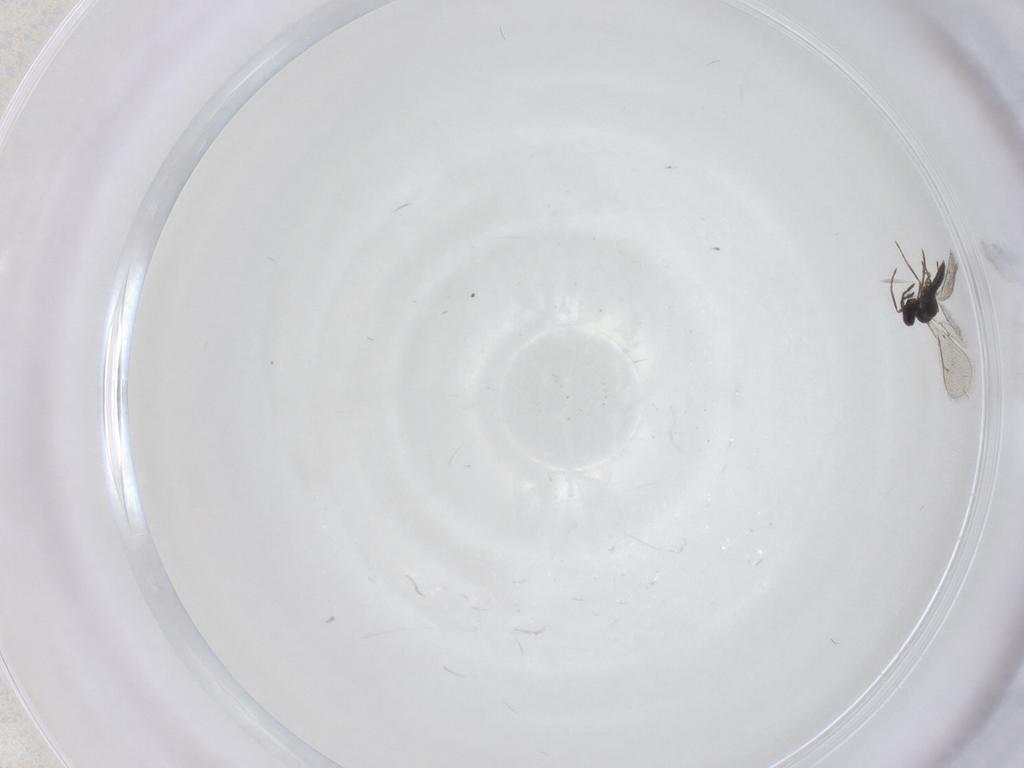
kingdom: Animalia
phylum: Arthropoda
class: Insecta
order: Hymenoptera
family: Eulophidae
